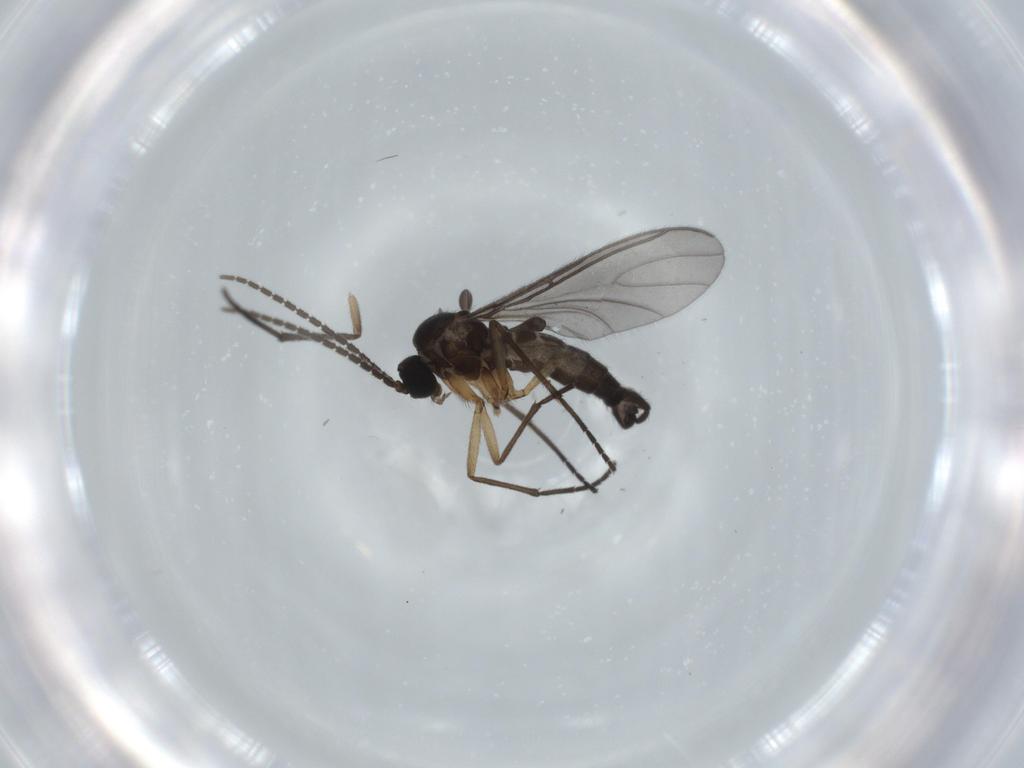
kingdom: Animalia
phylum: Arthropoda
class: Insecta
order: Diptera
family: Sciaridae
